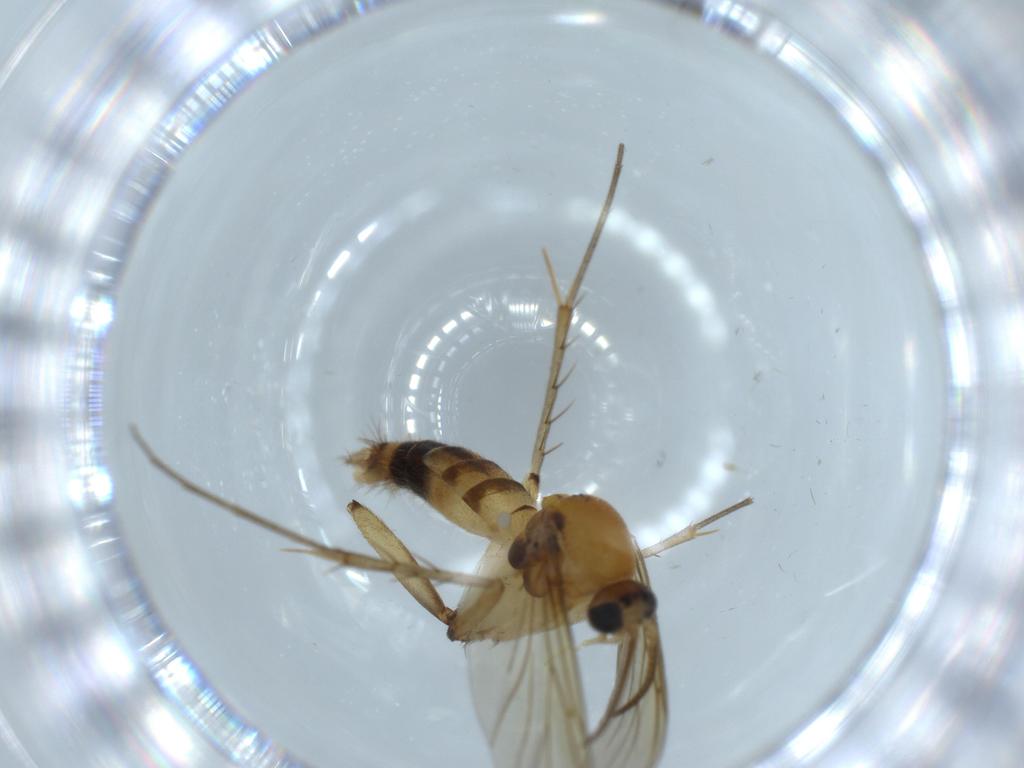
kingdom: Animalia
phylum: Arthropoda
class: Insecta
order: Diptera
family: Mycetophilidae
